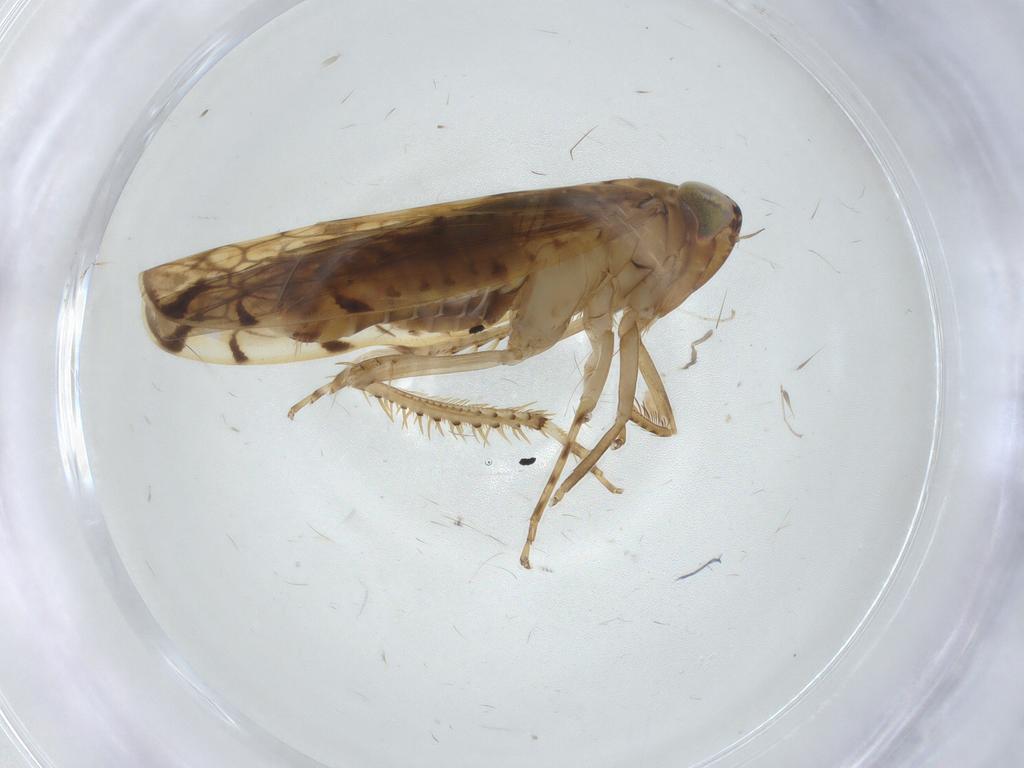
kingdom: Animalia
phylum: Arthropoda
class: Insecta
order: Hemiptera
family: Cicadellidae
